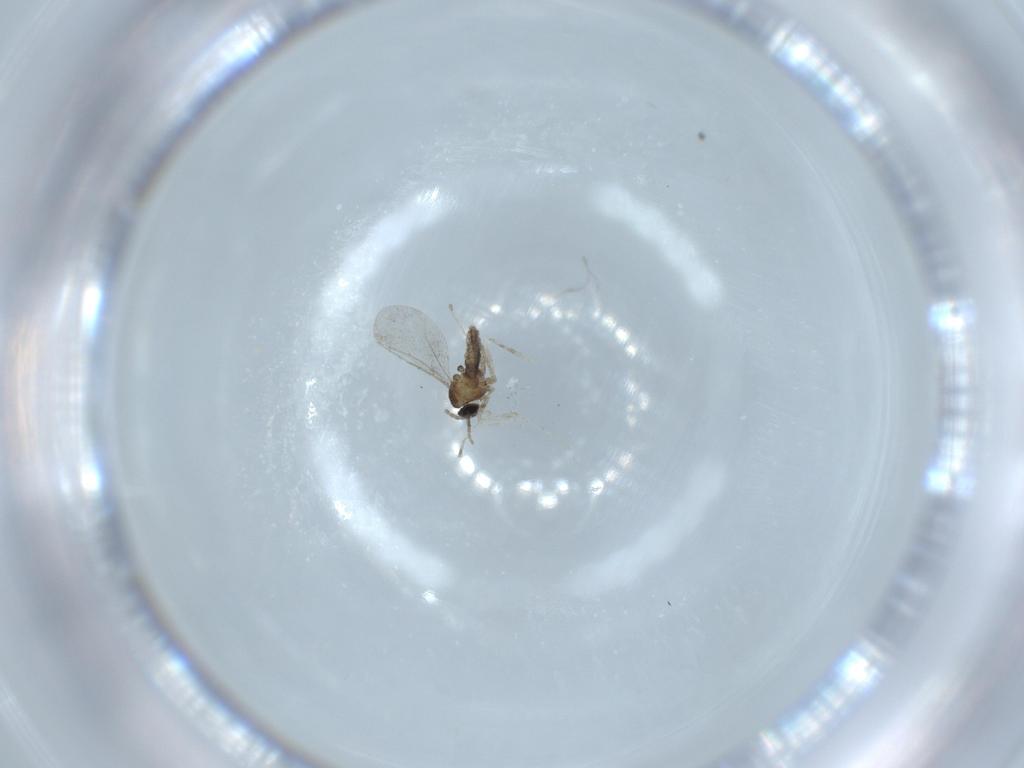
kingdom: Animalia
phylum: Arthropoda
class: Insecta
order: Diptera
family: Cecidomyiidae
